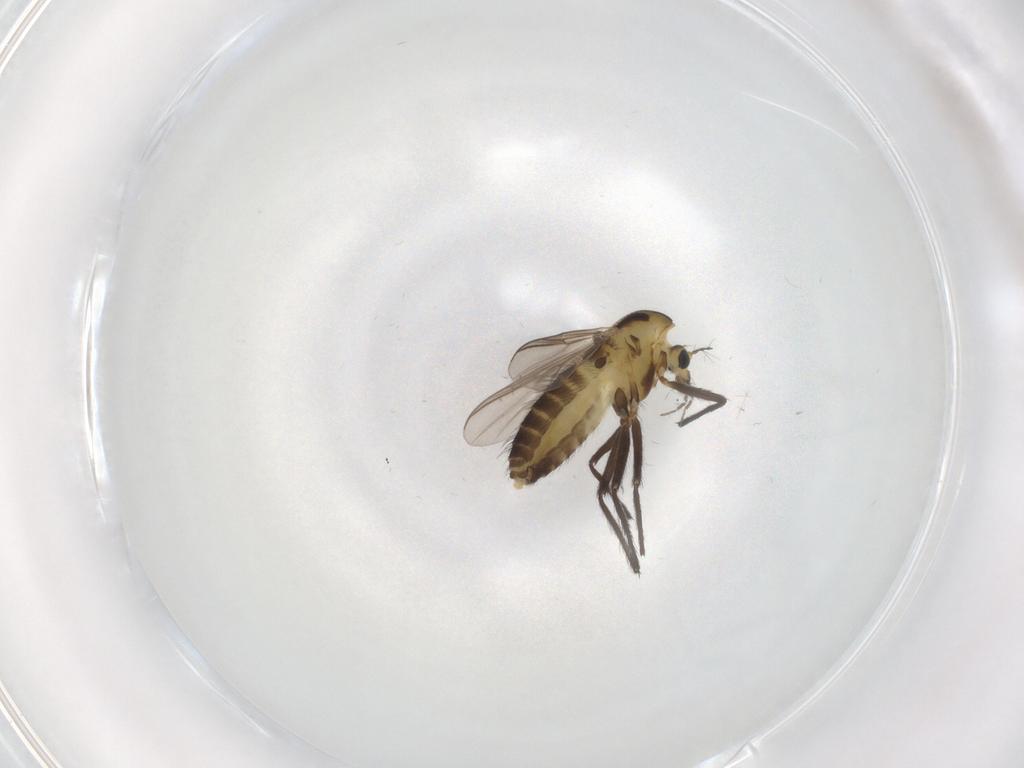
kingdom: Animalia
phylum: Arthropoda
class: Insecta
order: Diptera
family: Chironomidae
